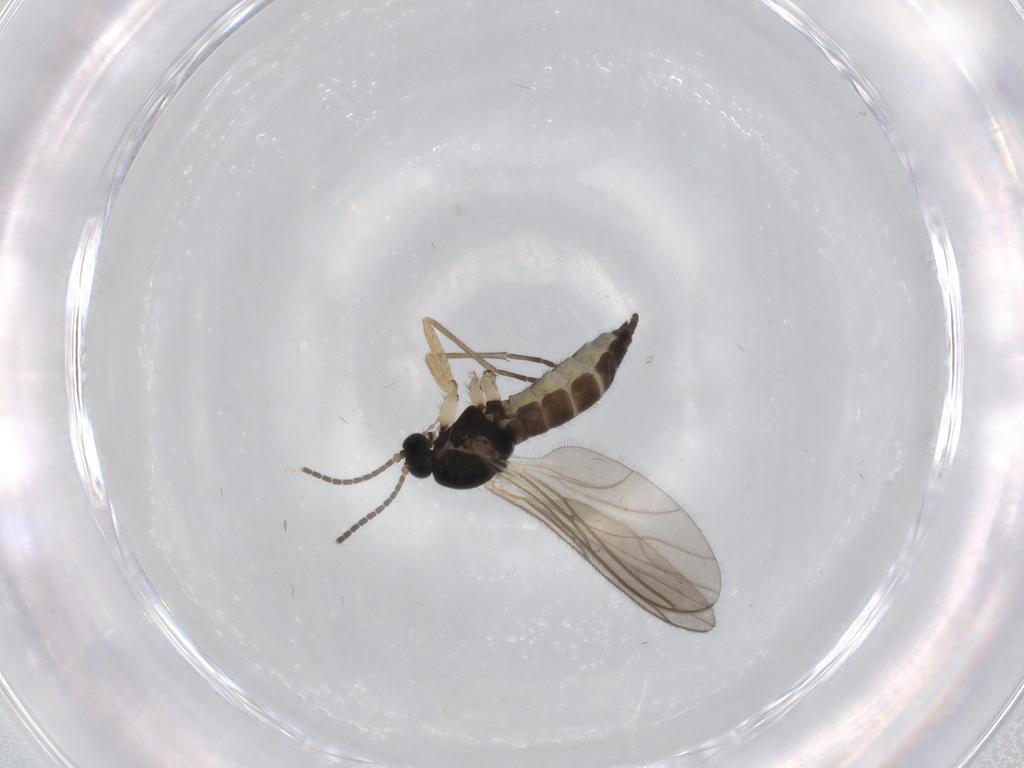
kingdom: Animalia
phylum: Arthropoda
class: Insecta
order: Diptera
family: Sciaridae
